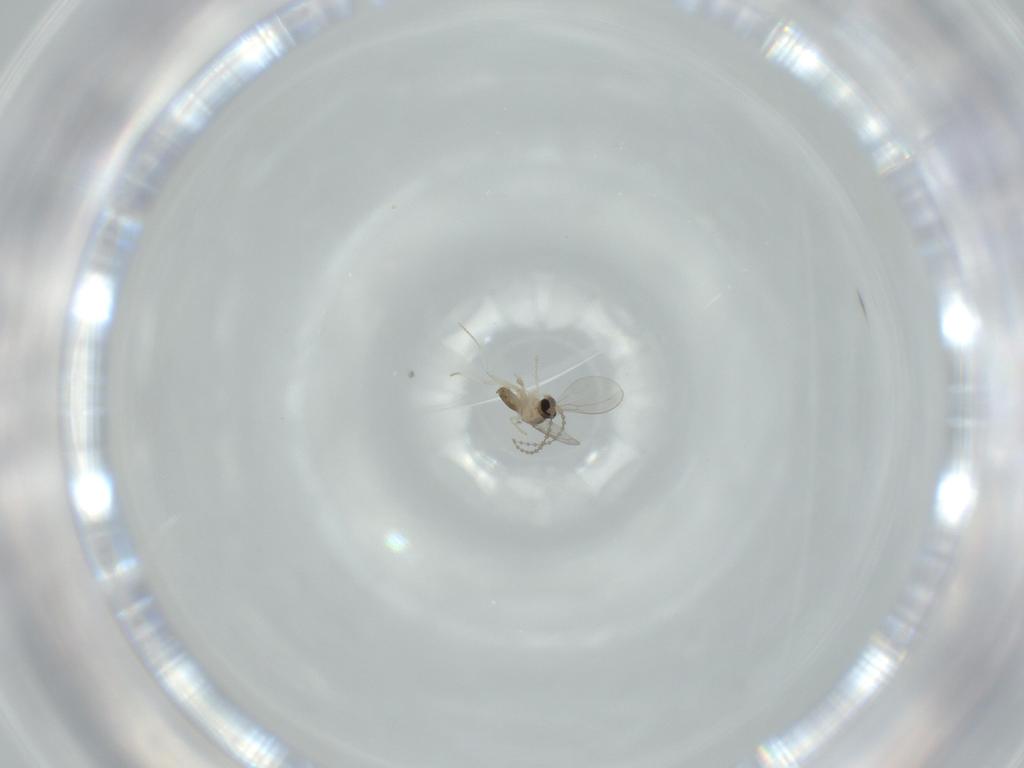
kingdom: Animalia
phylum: Arthropoda
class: Insecta
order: Diptera
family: Cecidomyiidae
